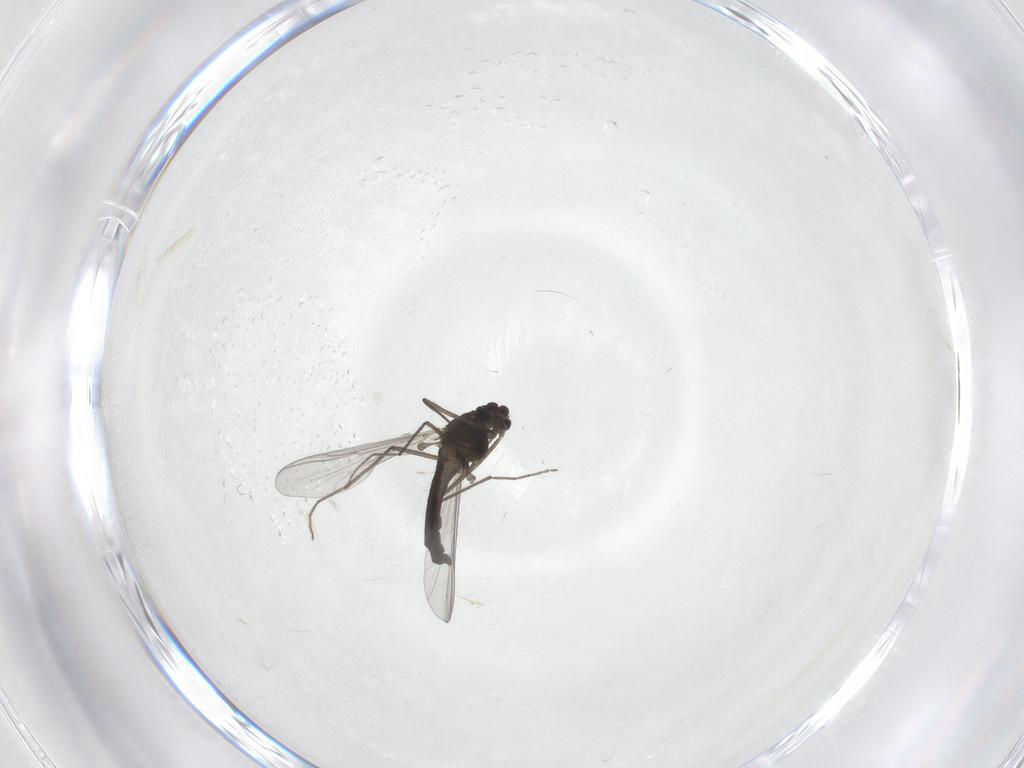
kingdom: Animalia
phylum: Arthropoda
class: Insecta
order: Diptera
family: Chironomidae
